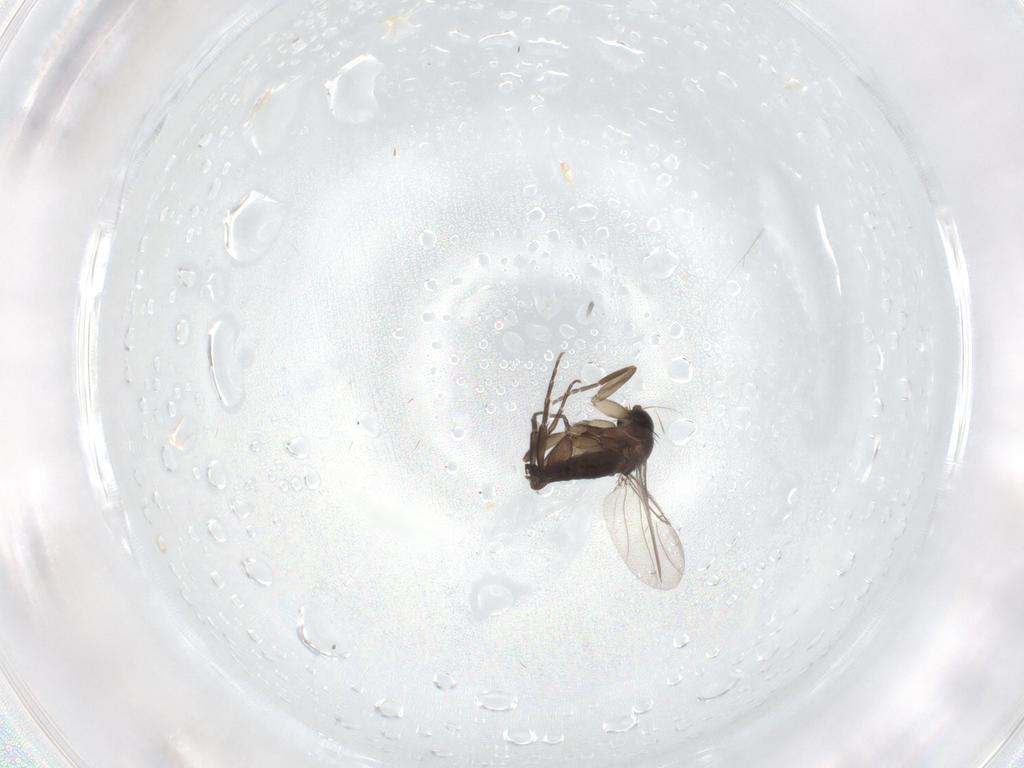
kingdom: Animalia
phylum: Arthropoda
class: Insecta
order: Diptera
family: Phoridae
